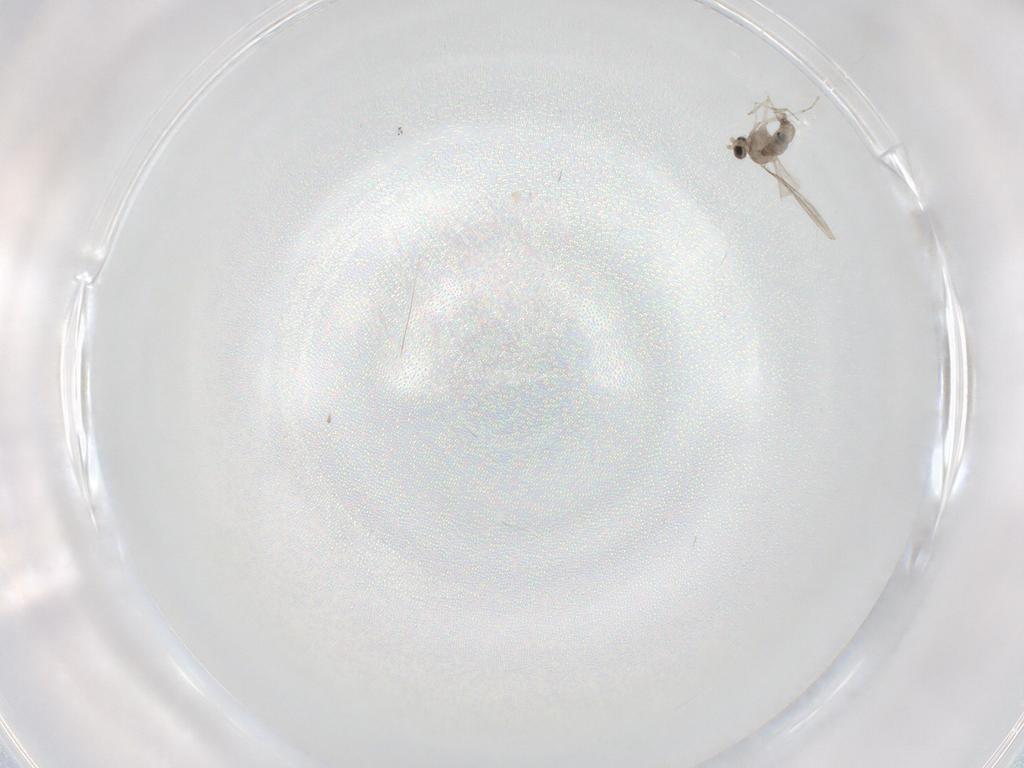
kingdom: Animalia
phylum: Arthropoda
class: Insecta
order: Diptera
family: Cecidomyiidae
